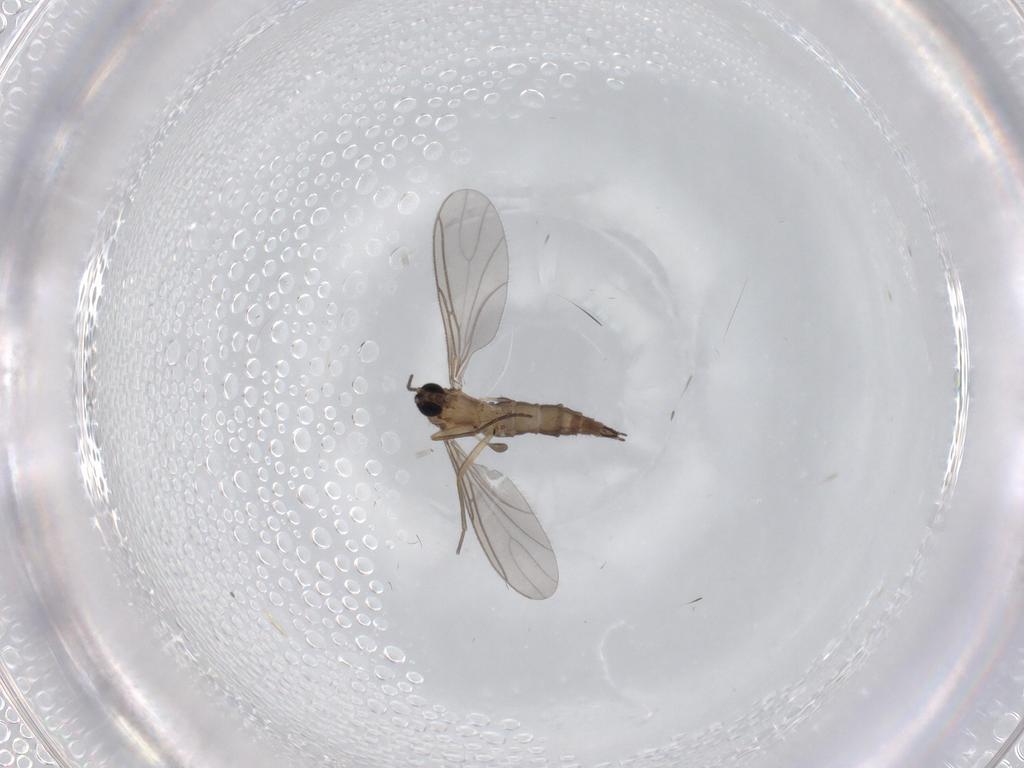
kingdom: Animalia
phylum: Arthropoda
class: Insecta
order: Diptera
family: Sciaridae
